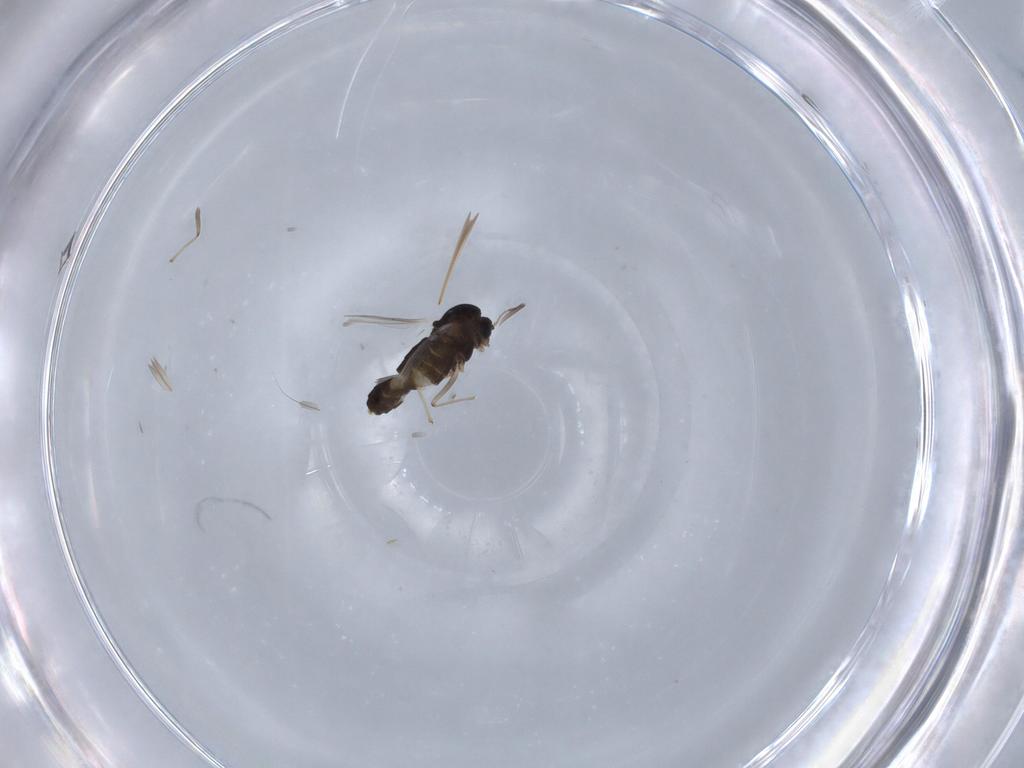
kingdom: Animalia
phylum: Arthropoda
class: Insecta
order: Diptera
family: Chironomidae
